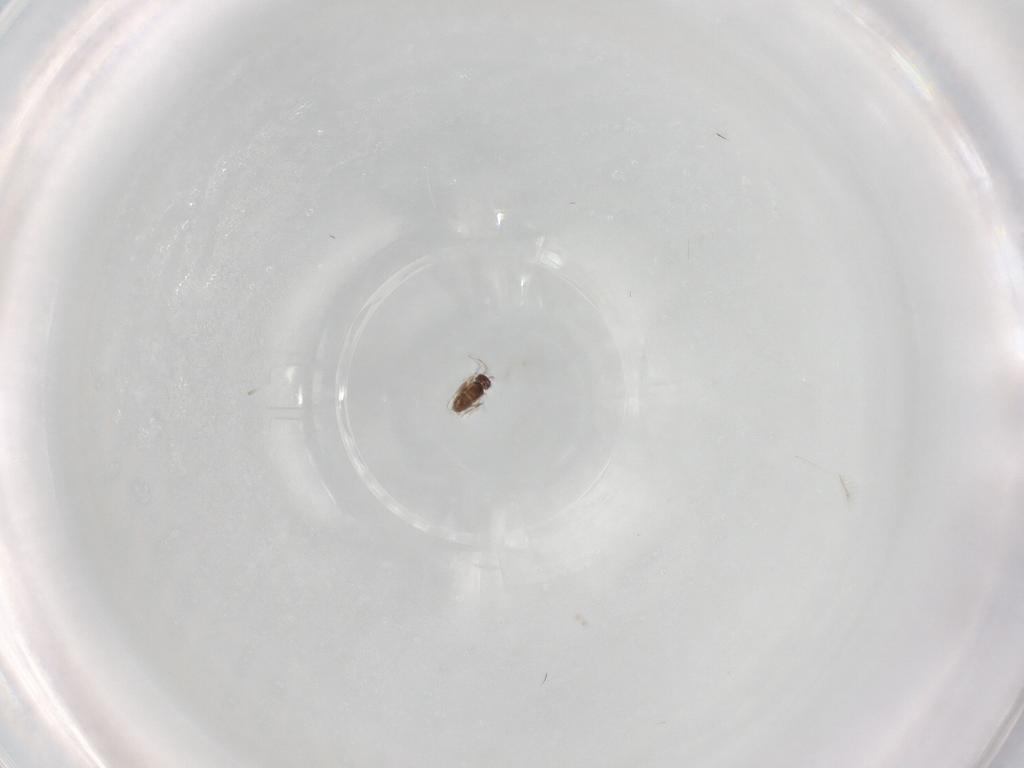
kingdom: Animalia
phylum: Arthropoda
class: Insecta
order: Hymenoptera
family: Mymaridae
